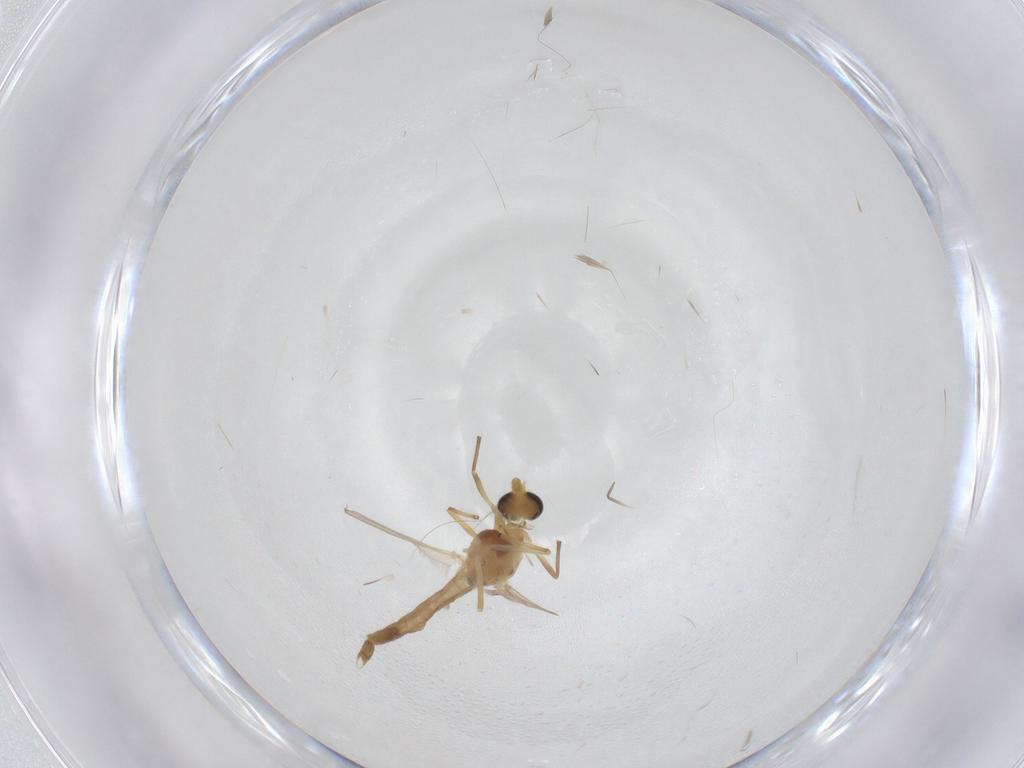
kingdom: Animalia
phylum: Arthropoda
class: Insecta
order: Diptera
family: Chironomidae
